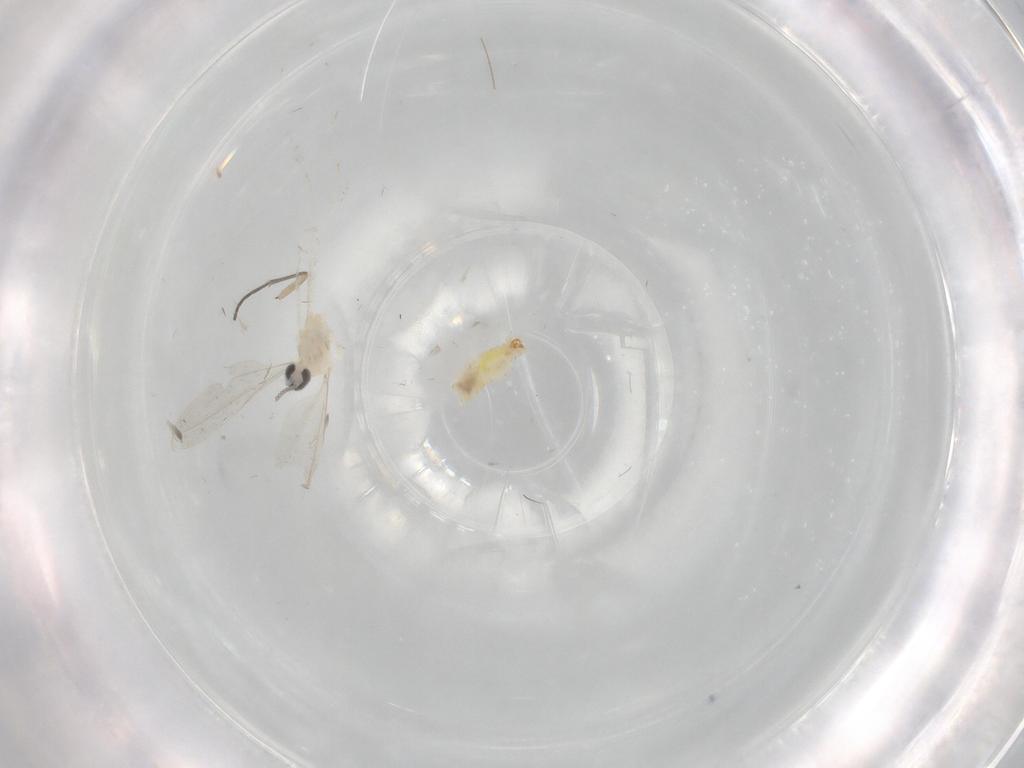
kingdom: Animalia
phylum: Arthropoda
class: Insecta
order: Diptera
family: Cecidomyiidae
